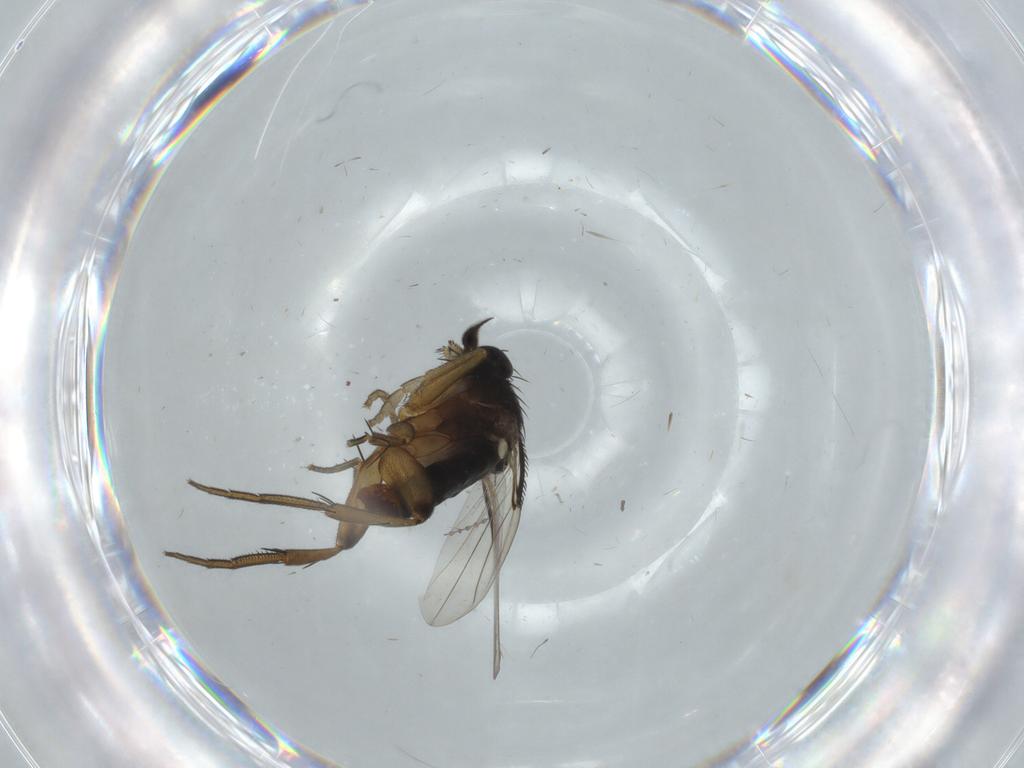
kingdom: Animalia
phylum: Arthropoda
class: Insecta
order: Diptera
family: Phoridae
